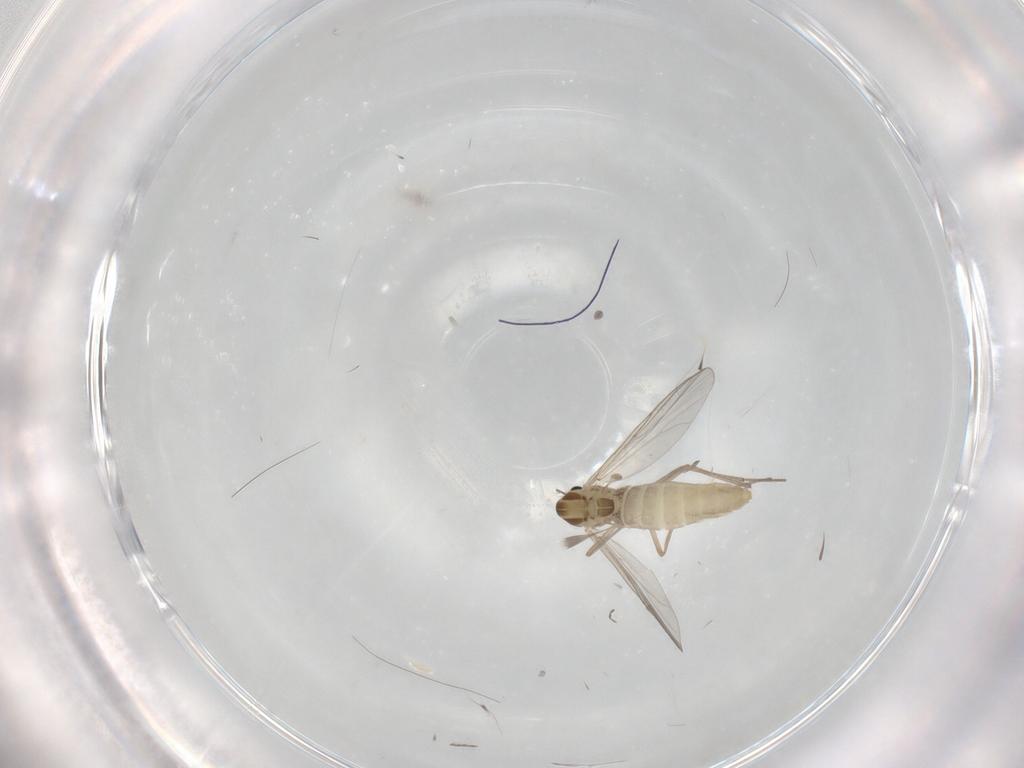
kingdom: Animalia
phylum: Arthropoda
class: Insecta
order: Diptera
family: Chironomidae
